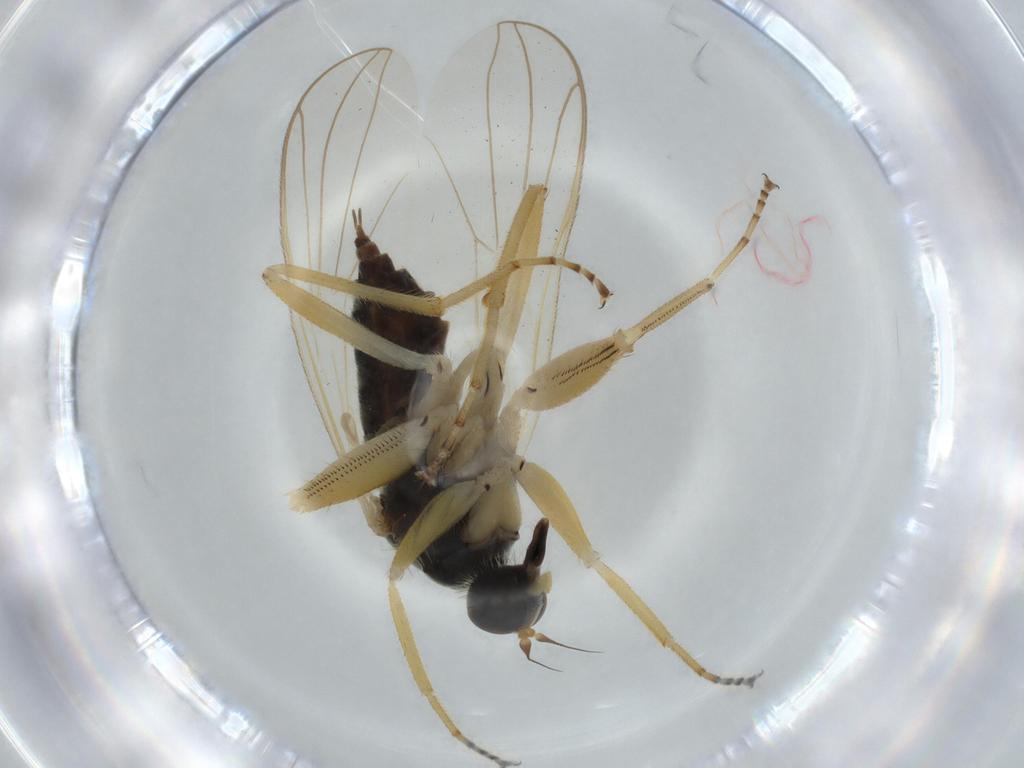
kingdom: Animalia
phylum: Arthropoda
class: Insecta
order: Diptera
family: Hybotidae
